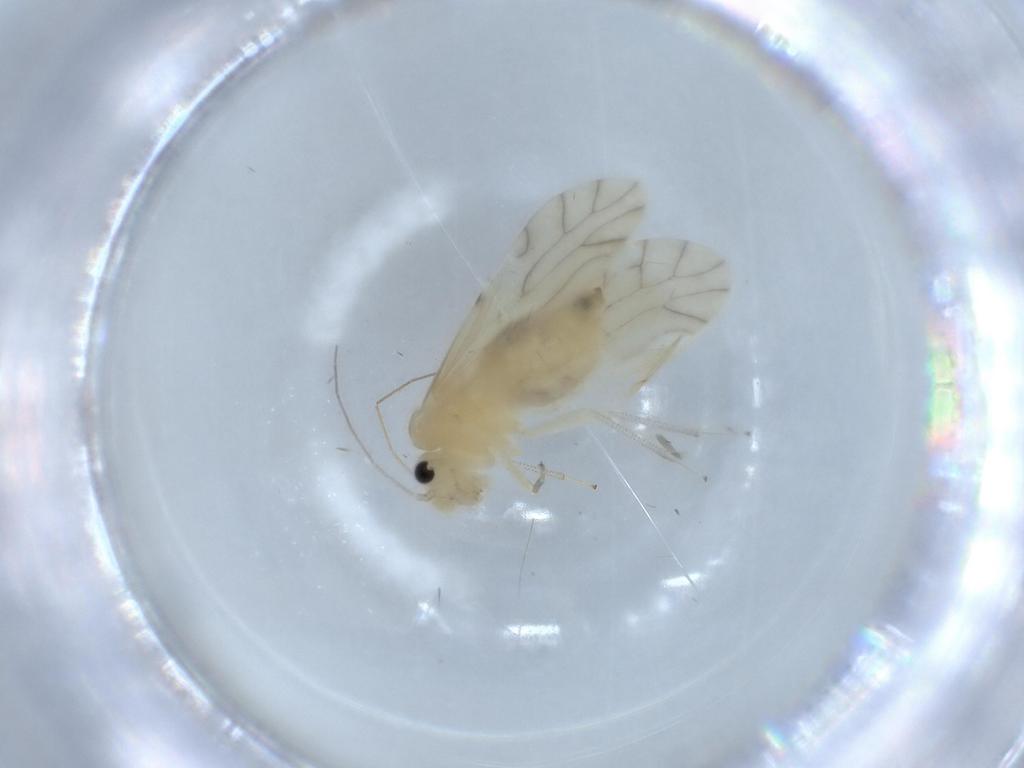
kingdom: Animalia
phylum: Arthropoda
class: Insecta
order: Psocodea
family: Caeciliusidae
